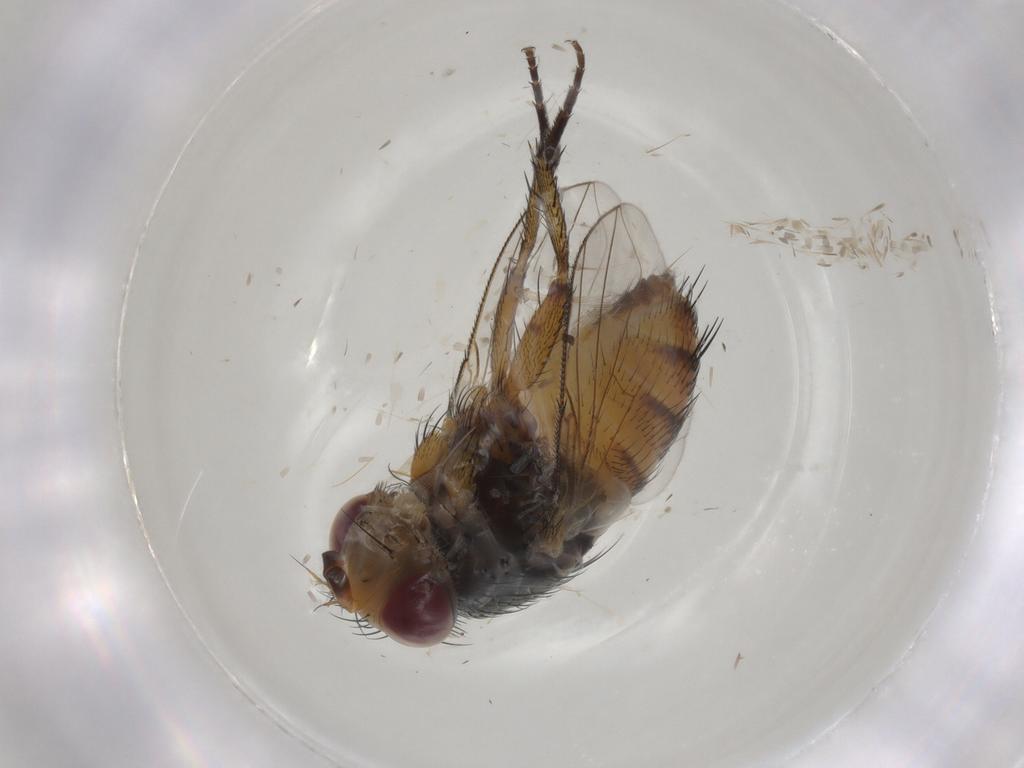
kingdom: Animalia
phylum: Arthropoda
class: Insecta
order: Diptera
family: Tachinidae
